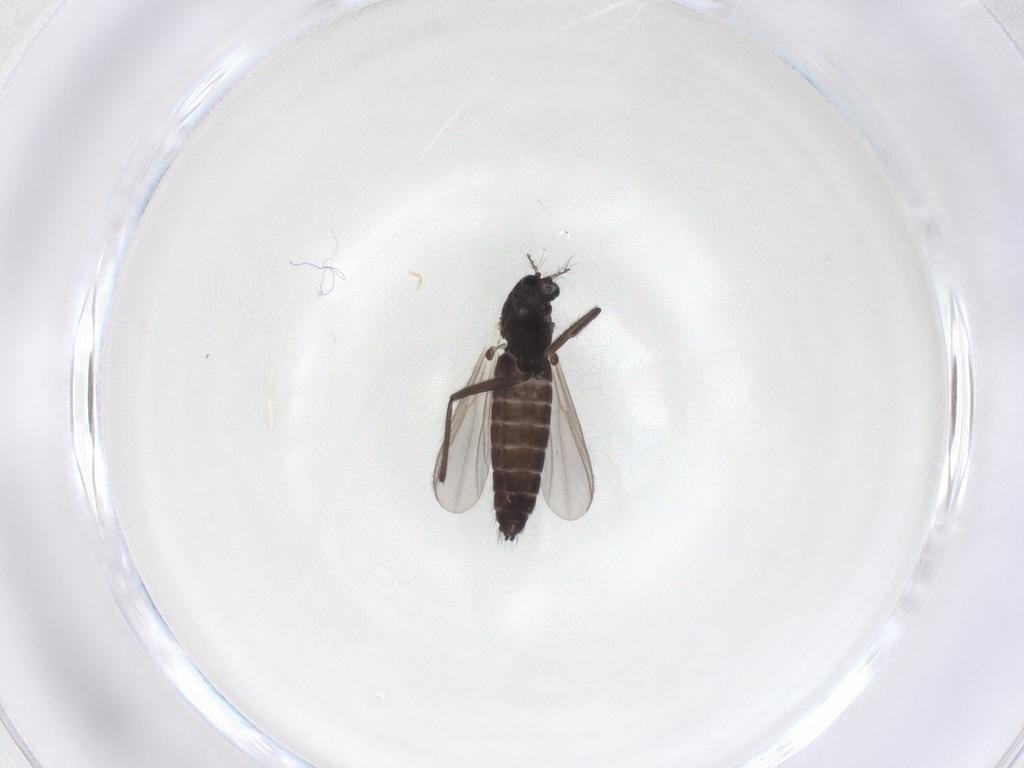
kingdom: Animalia
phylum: Arthropoda
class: Insecta
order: Diptera
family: Chironomidae
